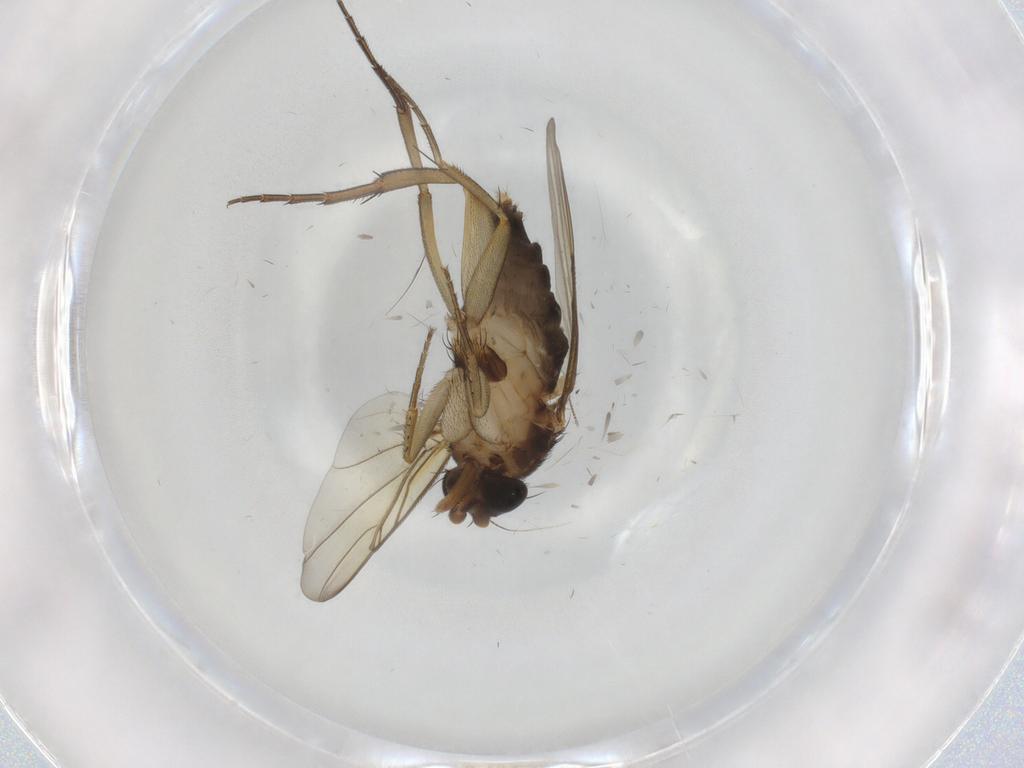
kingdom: Animalia
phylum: Arthropoda
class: Insecta
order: Diptera
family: Phoridae
